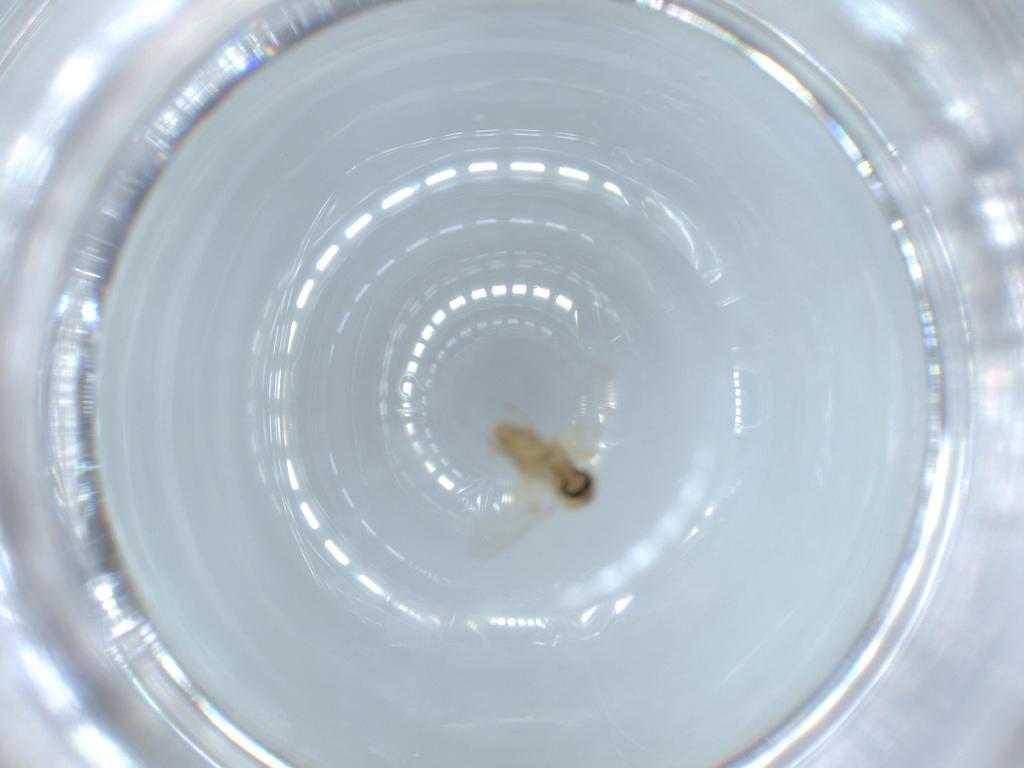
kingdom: Animalia
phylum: Arthropoda
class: Insecta
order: Diptera
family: Ceratopogonidae
